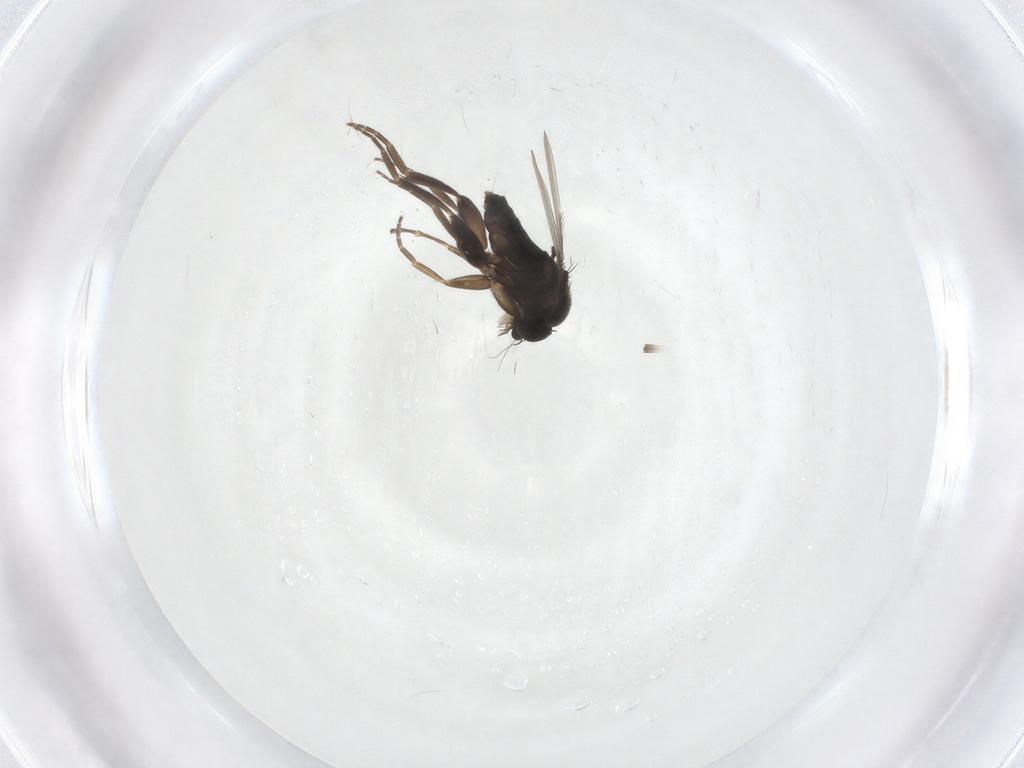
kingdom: Animalia
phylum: Arthropoda
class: Insecta
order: Diptera
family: Phoridae
